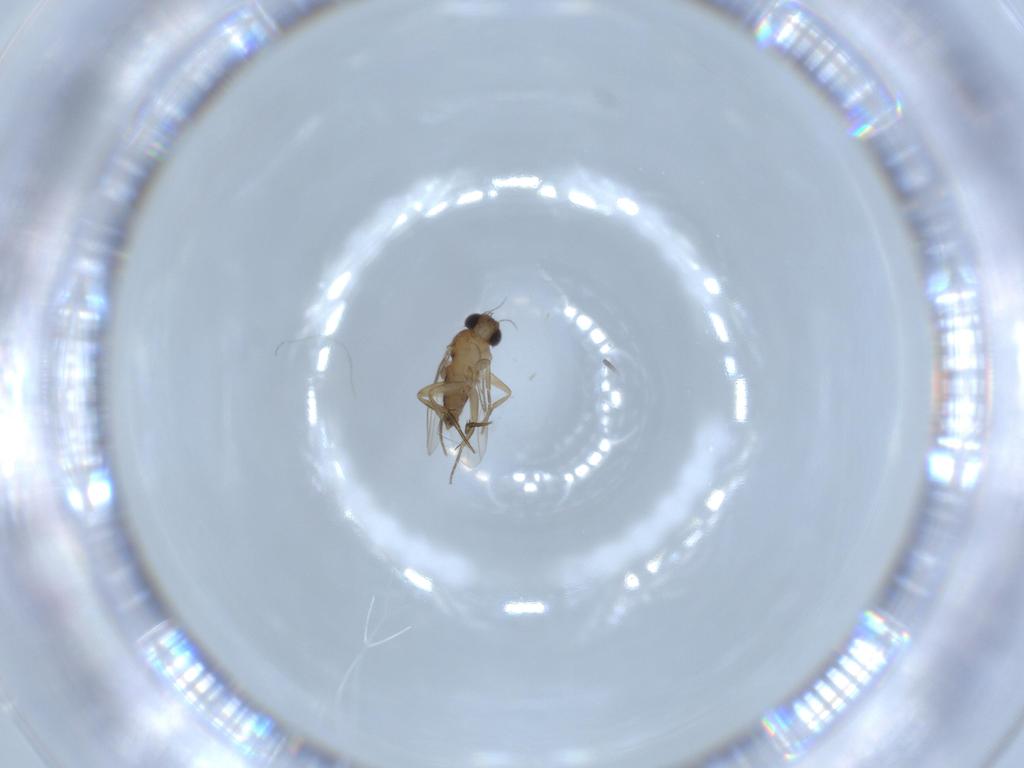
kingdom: Animalia
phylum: Arthropoda
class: Insecta
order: Diptera
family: Phoridae
